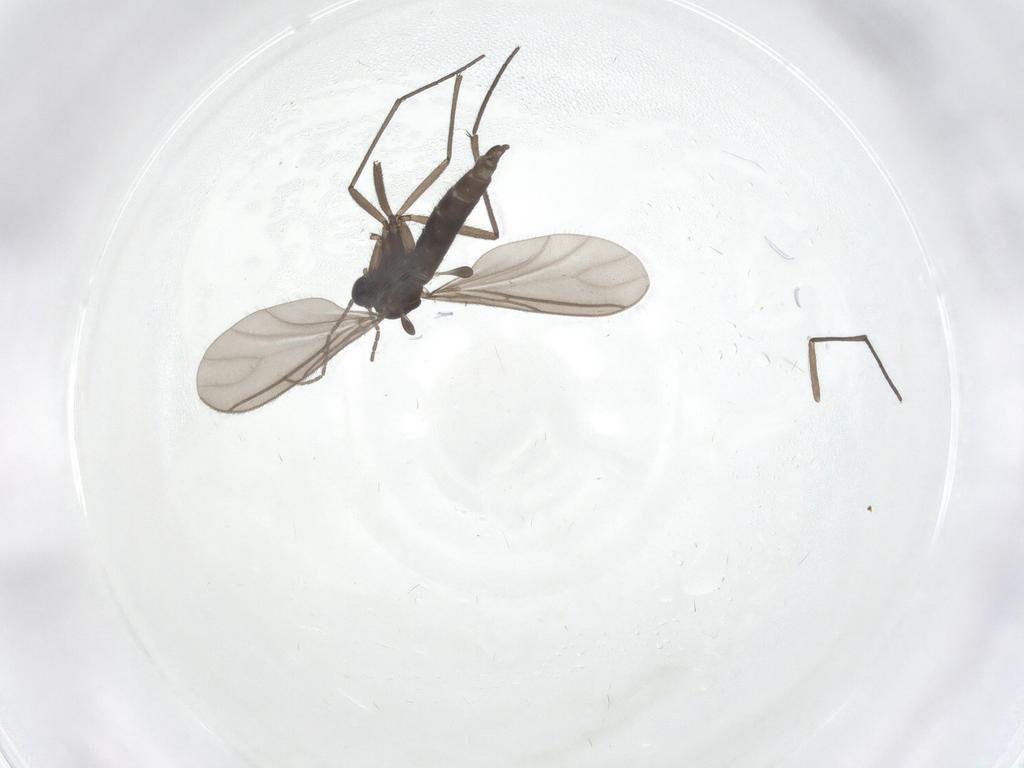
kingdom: Animalia
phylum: Arthropoda
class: Insecta
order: Diptera
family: Sciaridae
